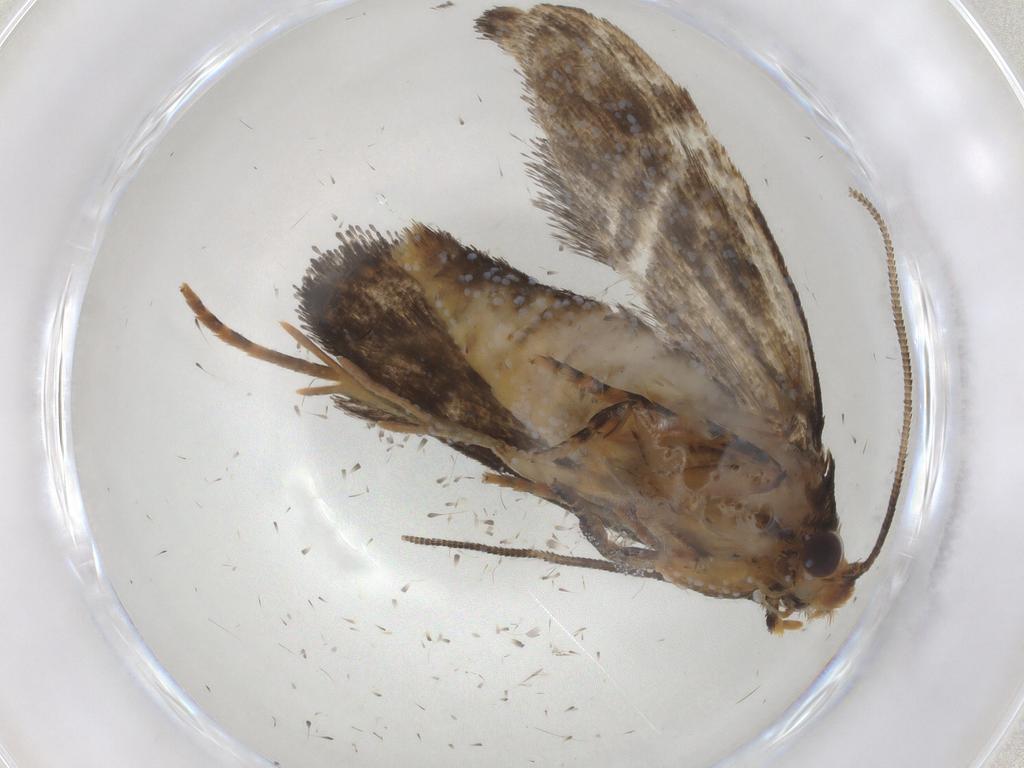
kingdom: Animalia
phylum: Arthropoda
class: Insecta
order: Lepidoptera
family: Tineidae
